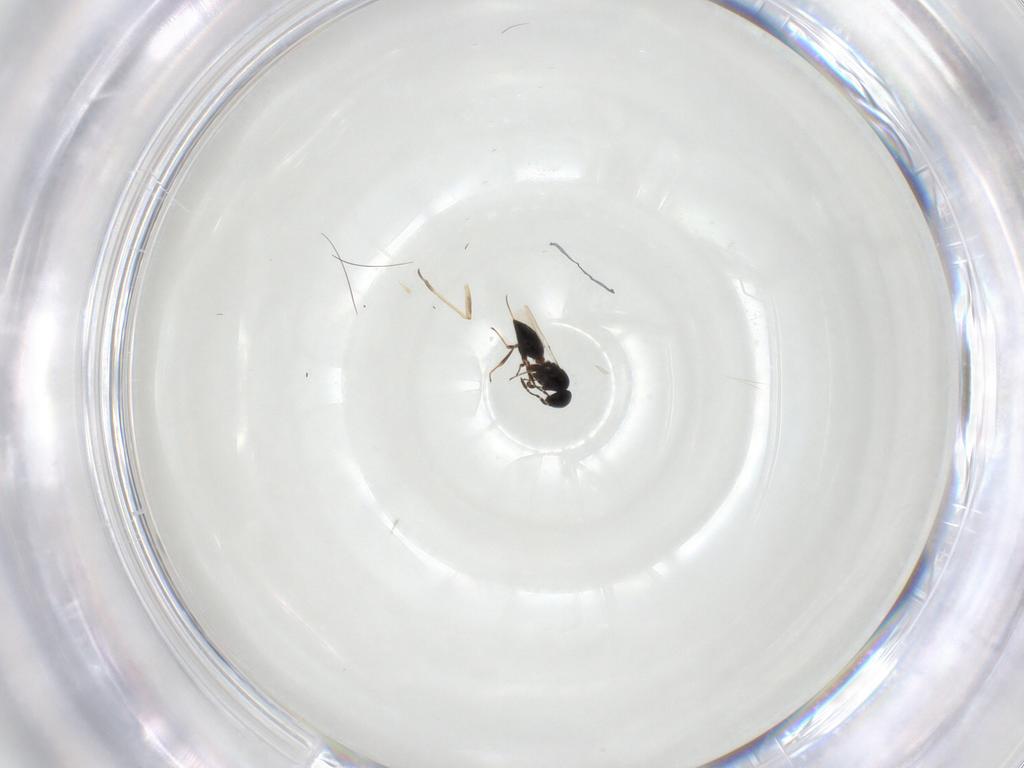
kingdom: Animalia
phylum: Arthropoda
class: Insecta
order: Hymenoptera
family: Platygastridae
